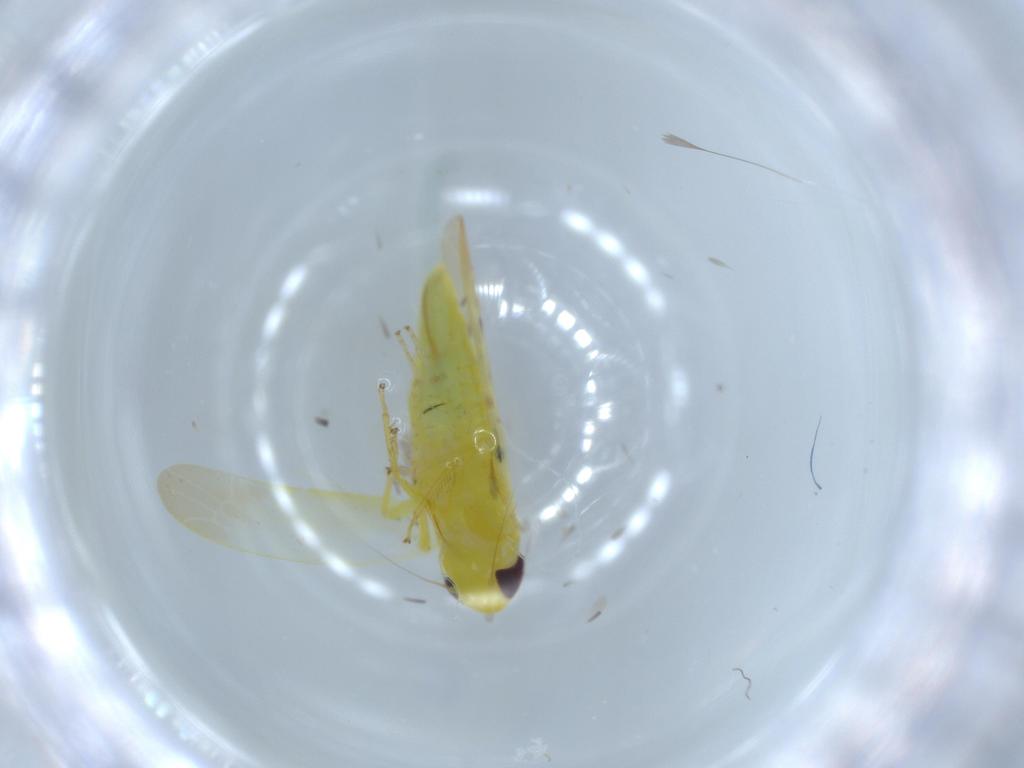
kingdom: Animalia
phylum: Arthropoda
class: Insecta
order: Hemiptera
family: Cicadellidae
